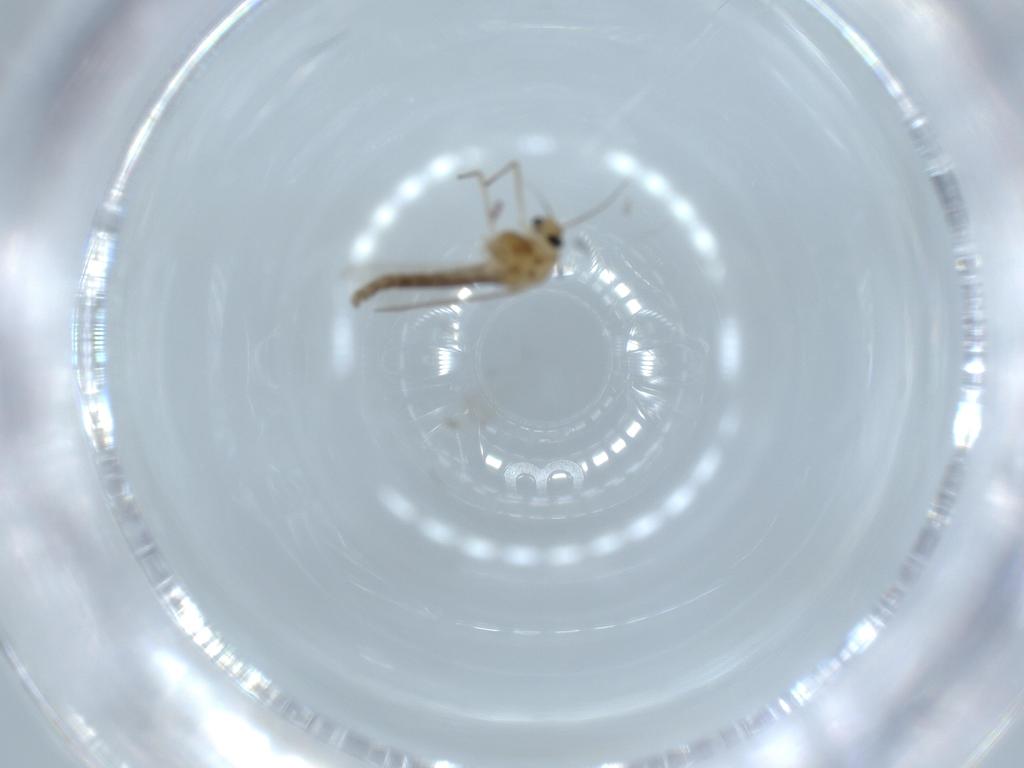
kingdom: Animalia
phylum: Arthropoda
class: Insecta
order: Diptera
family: Chironomidae
